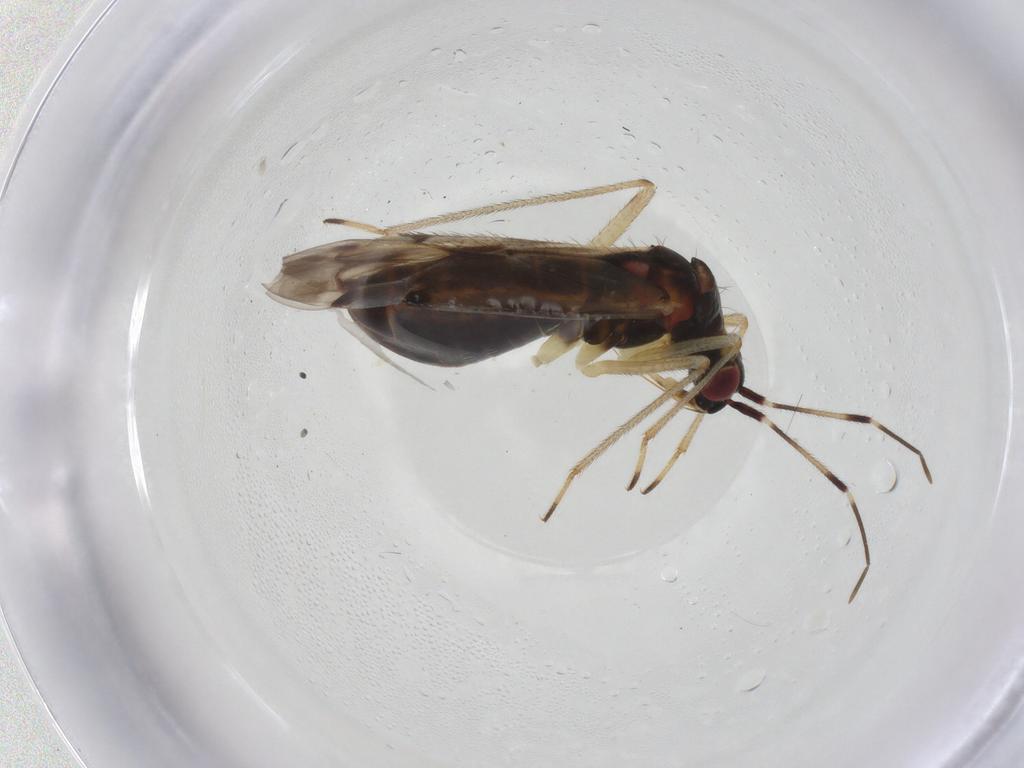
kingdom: Animalia
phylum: Arthropoda
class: Insecta
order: Hemiptera
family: Miridae
